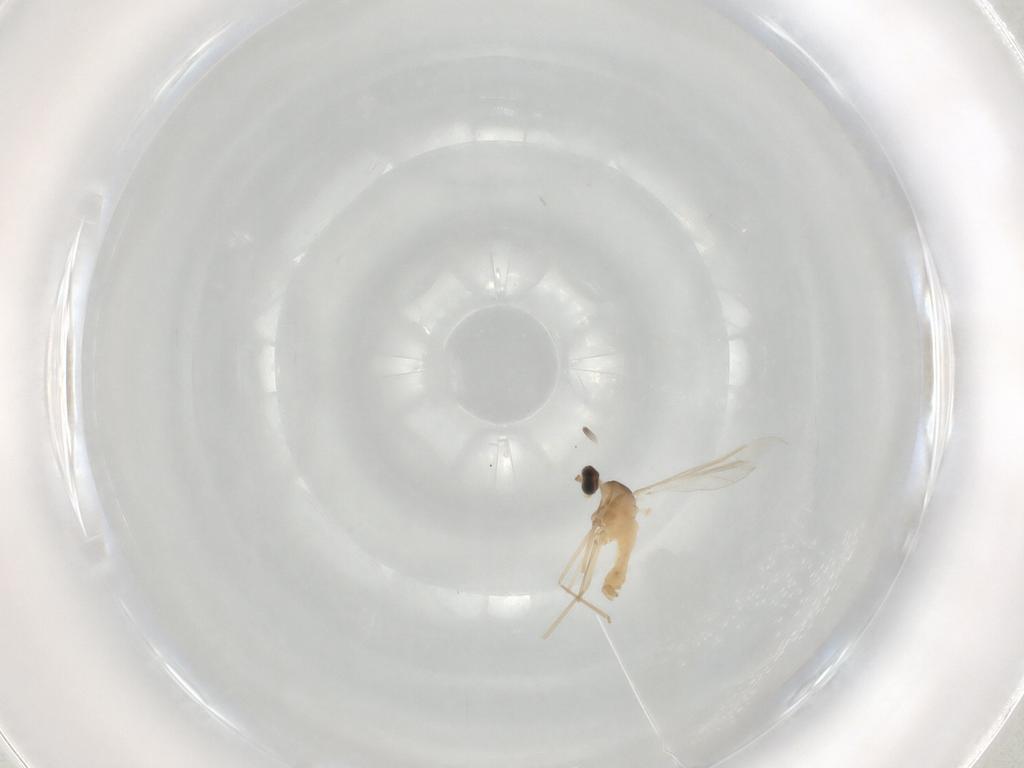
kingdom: Animalia
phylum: Arthropoda
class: Insecta
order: Diptera
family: Cecidomyiidae
